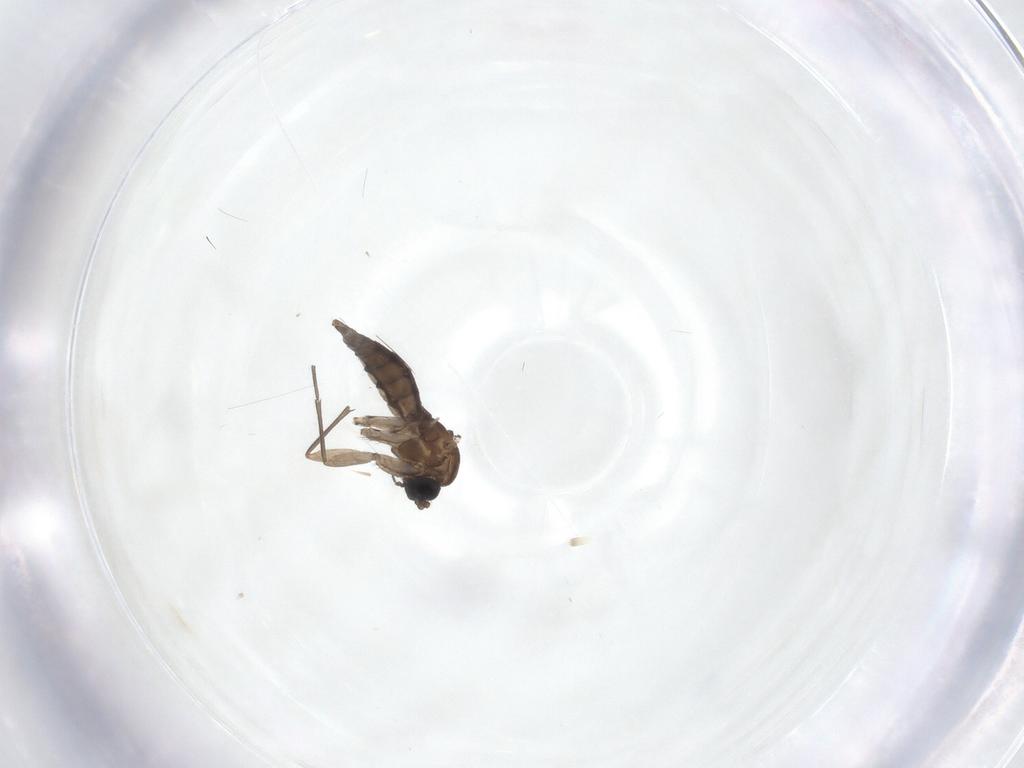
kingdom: Animalia
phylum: Arthropoda
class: Insecta
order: Diptera
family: Sciaridae
